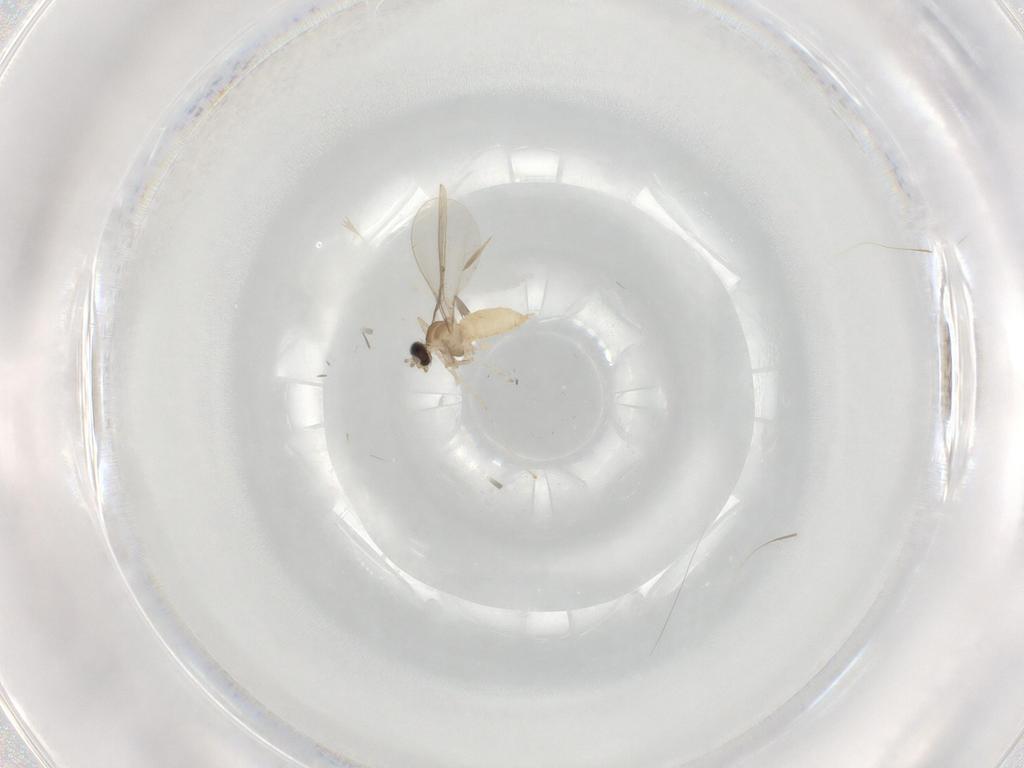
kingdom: Animalia
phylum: Arthropoda
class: Insecta
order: Diptera
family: Cecidomyiidae
